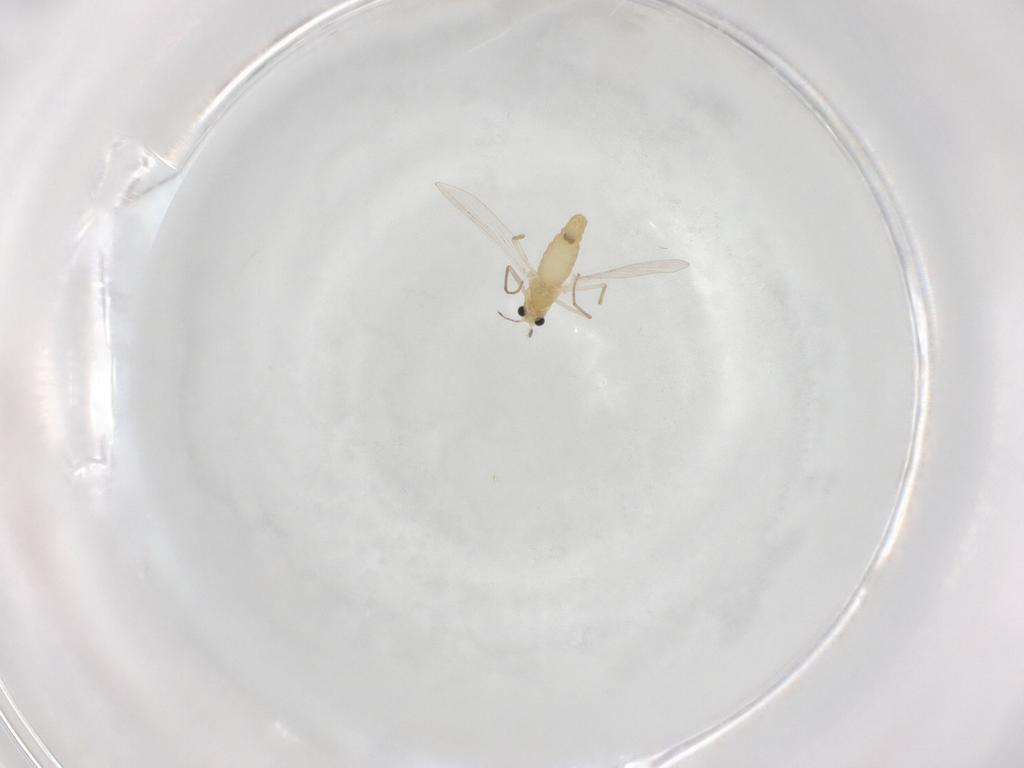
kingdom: Animalia
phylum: Arthropoda
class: Insecta
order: Diptera
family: Chironomidae
